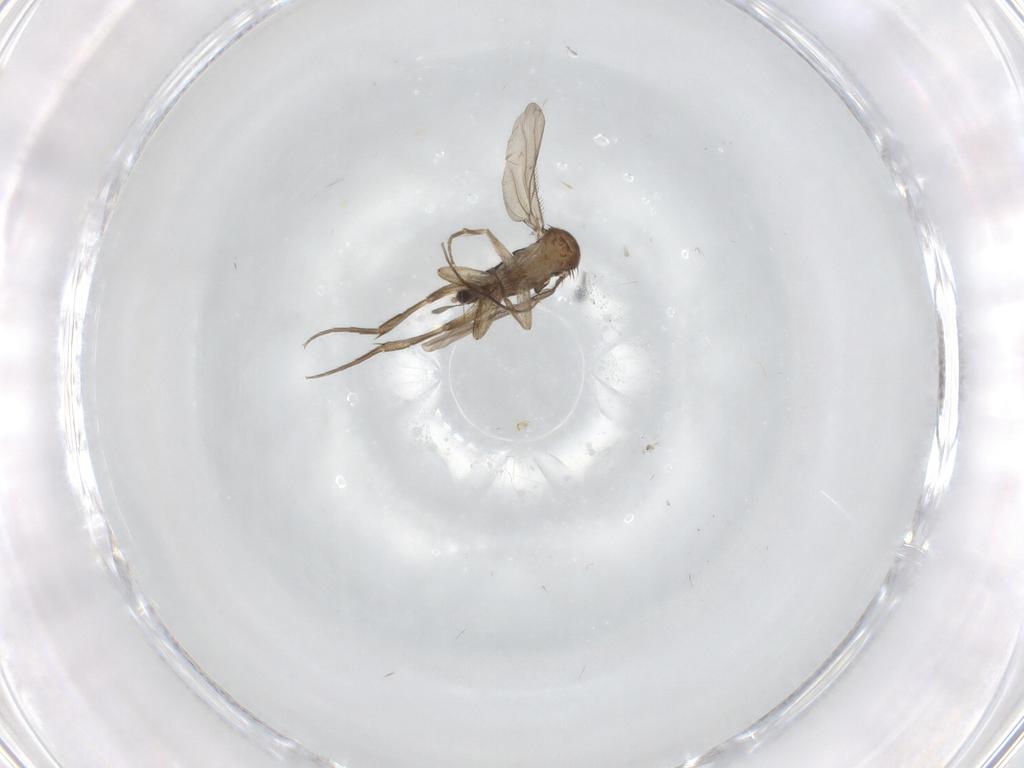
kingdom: Animalia
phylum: Arthropoda
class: Insecta
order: Diptera
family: Phoridae
